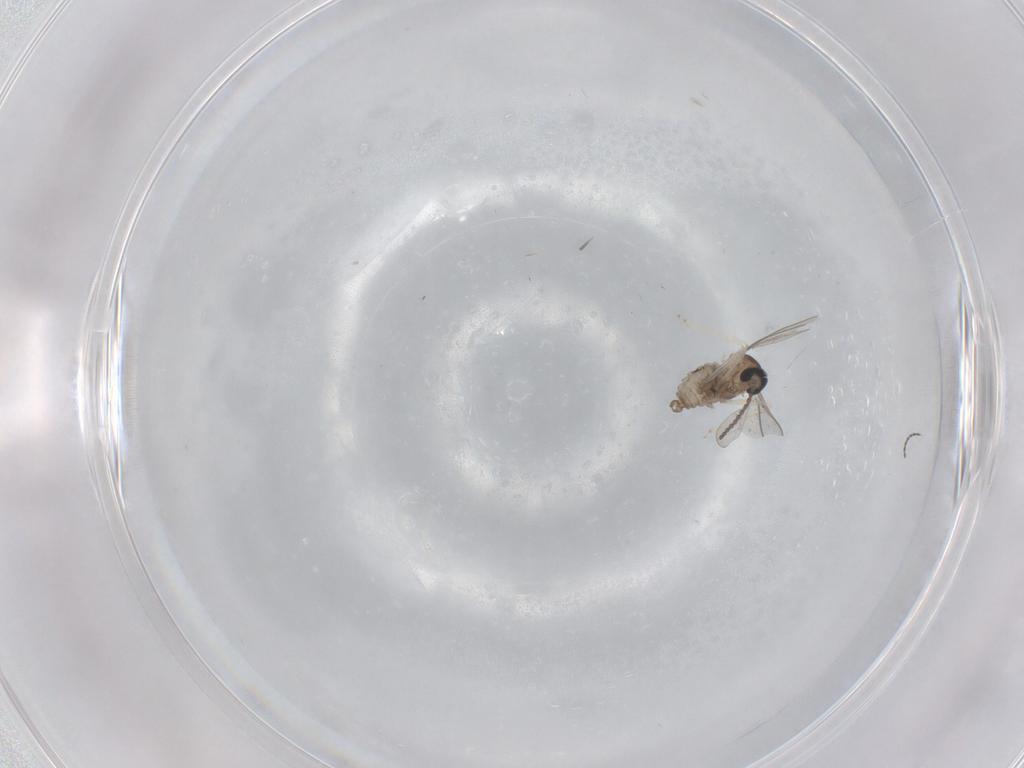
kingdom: Animalia
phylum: Arthropoda
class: Insecta
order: Diptera
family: Cecidomyiidae
